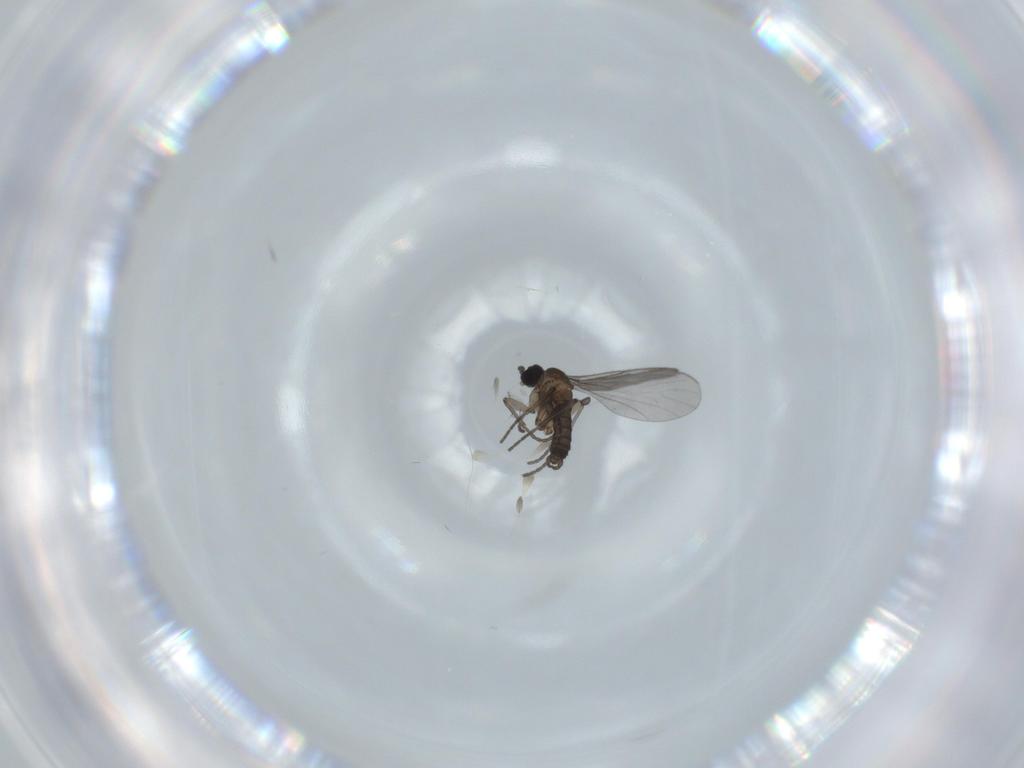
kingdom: Animalia
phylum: Arthropoda
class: Insecta
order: Diptera
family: Limoniidae
